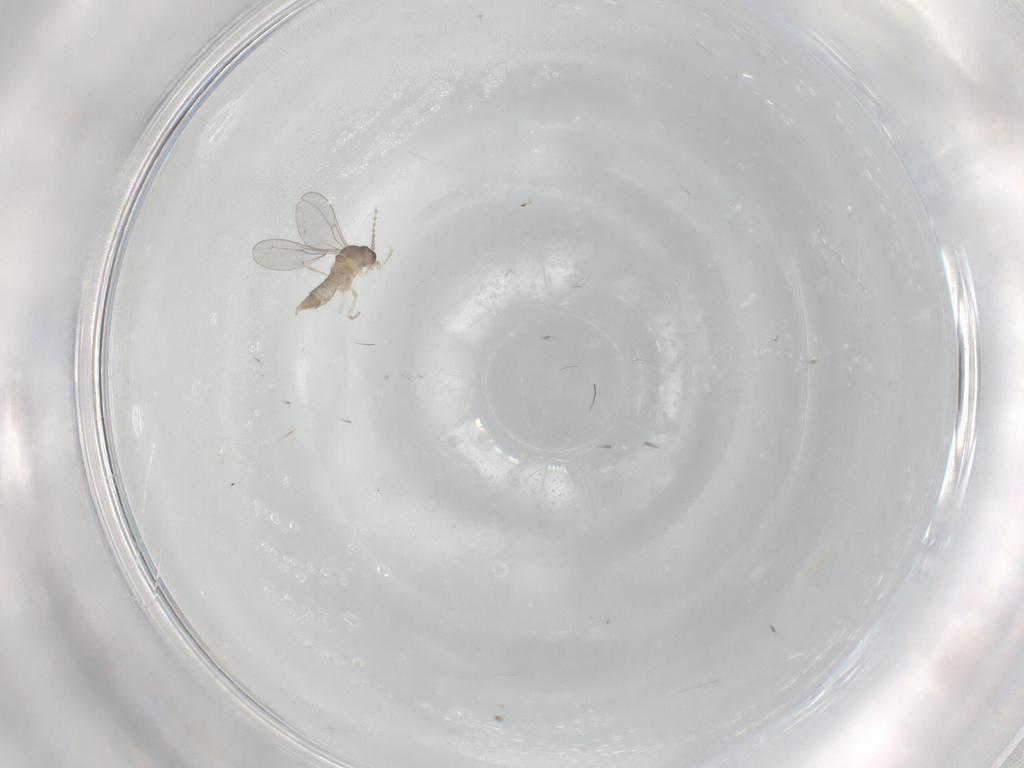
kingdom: Animalia
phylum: Arthropoda
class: Insecta
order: Diptera
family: Cecidomyiidae
